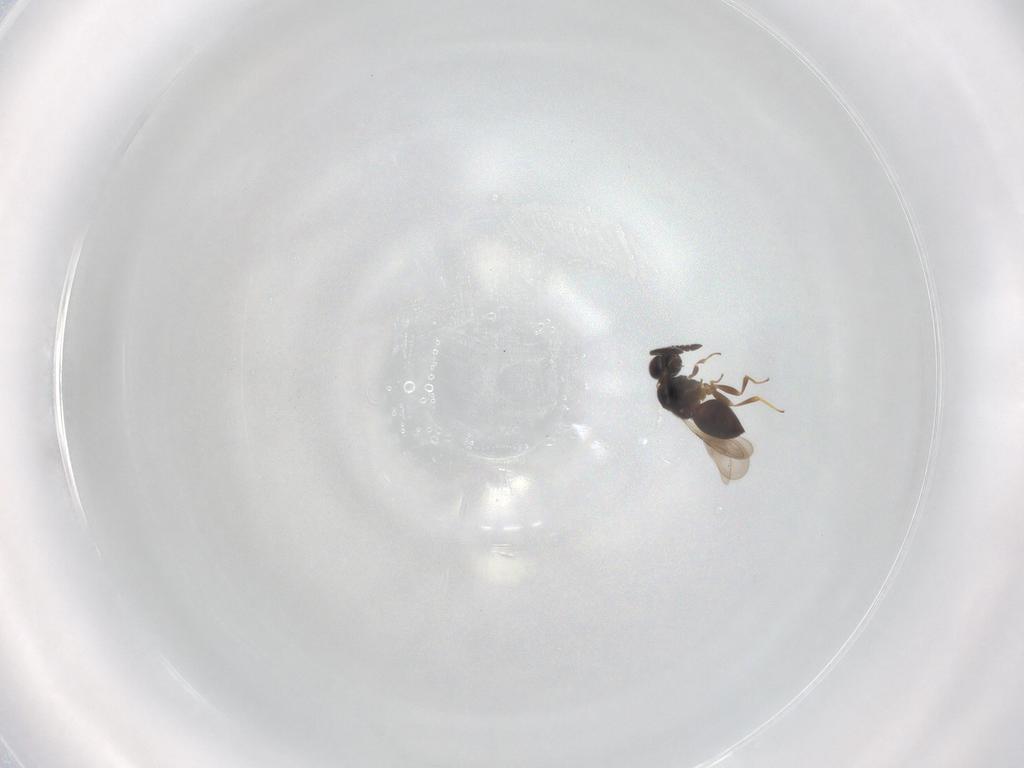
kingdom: Animalia
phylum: Arthropoda
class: Insecta
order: Hymenoptera
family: Ceraphronidae
